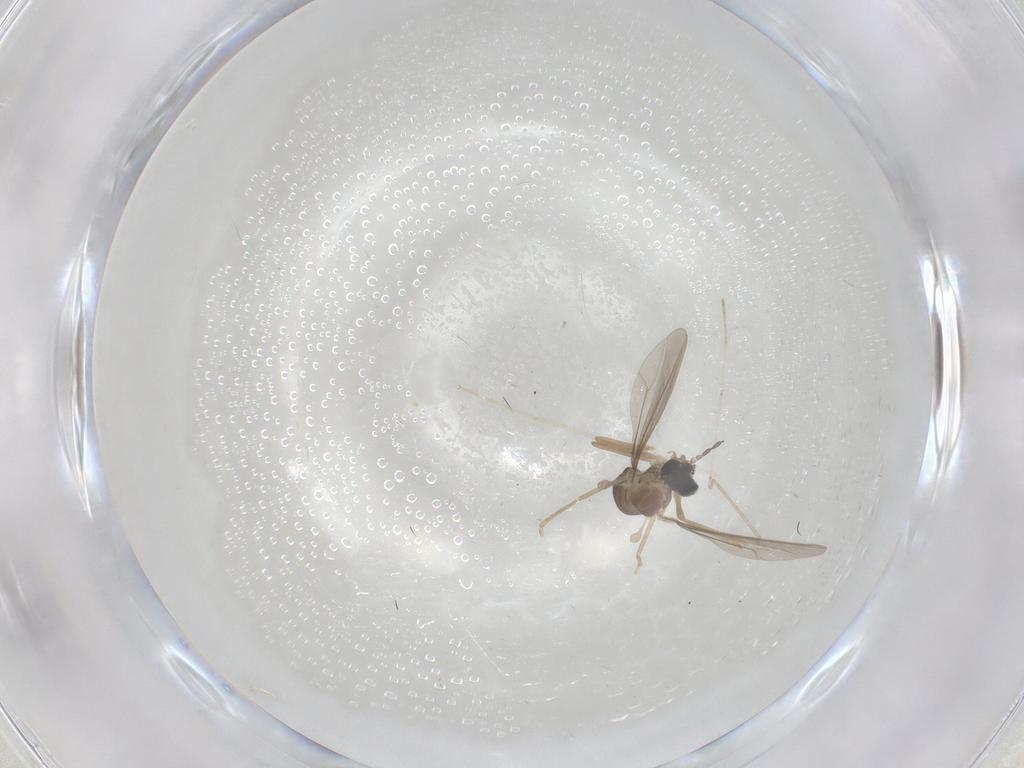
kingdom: Animalia
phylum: Arthropoda
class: Insecta
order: Diptera
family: Cecidomyiidae
